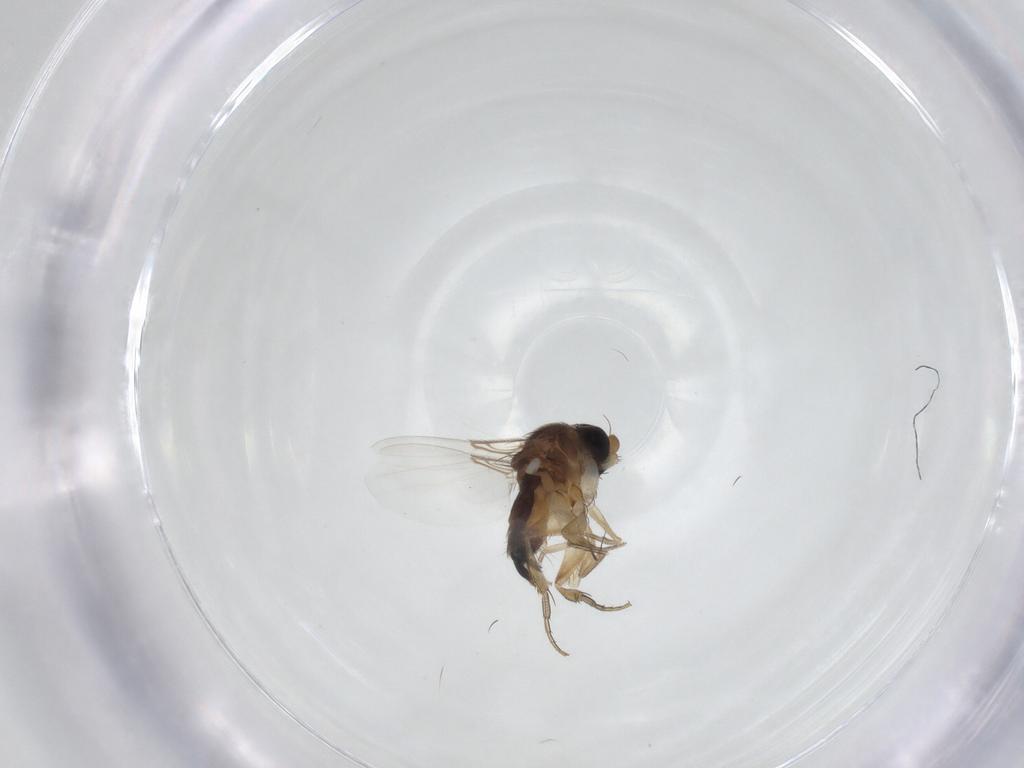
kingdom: Animalia
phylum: Arthropoda
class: Insecta
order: Diptera
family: Phoridae
